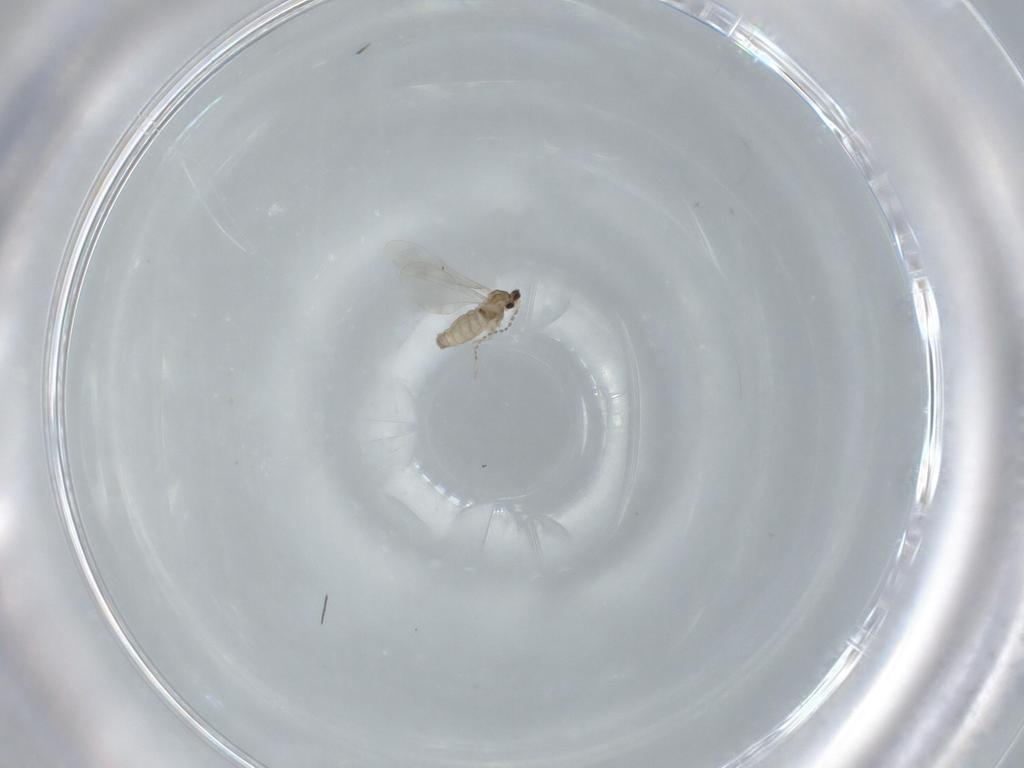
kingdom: Animalia
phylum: Arthropoda
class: Insecta
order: Diptera
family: Cecidomyiidae
